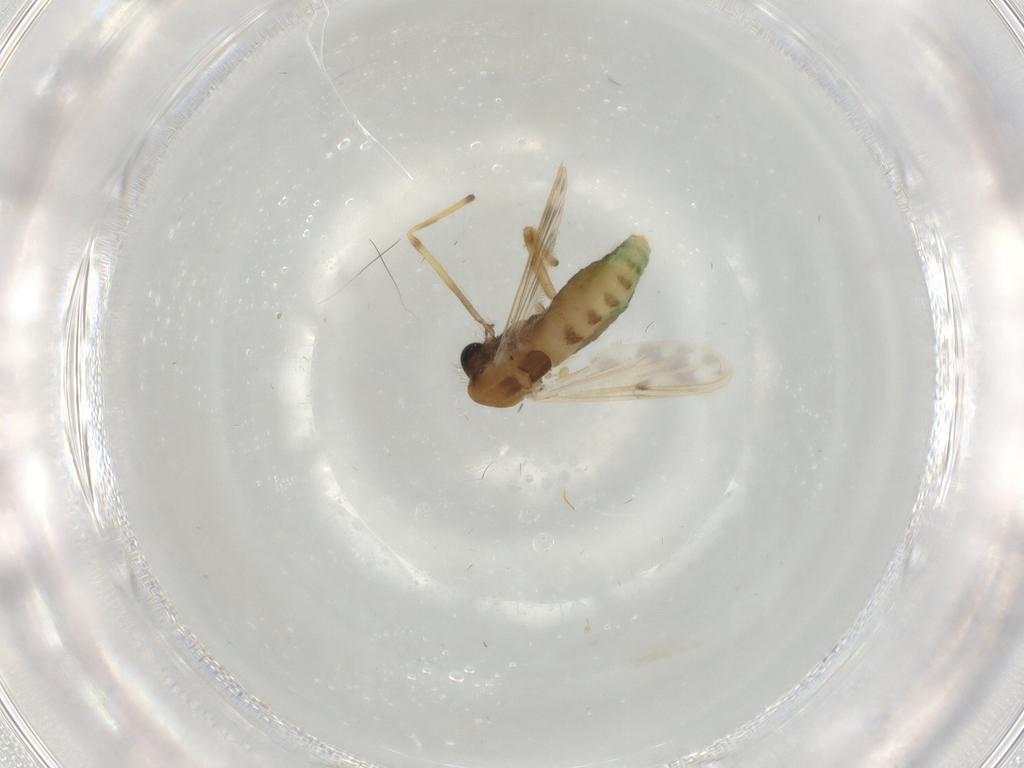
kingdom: Animalia
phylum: Arthropoda
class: Insecta
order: Diptera
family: Chironomidae
